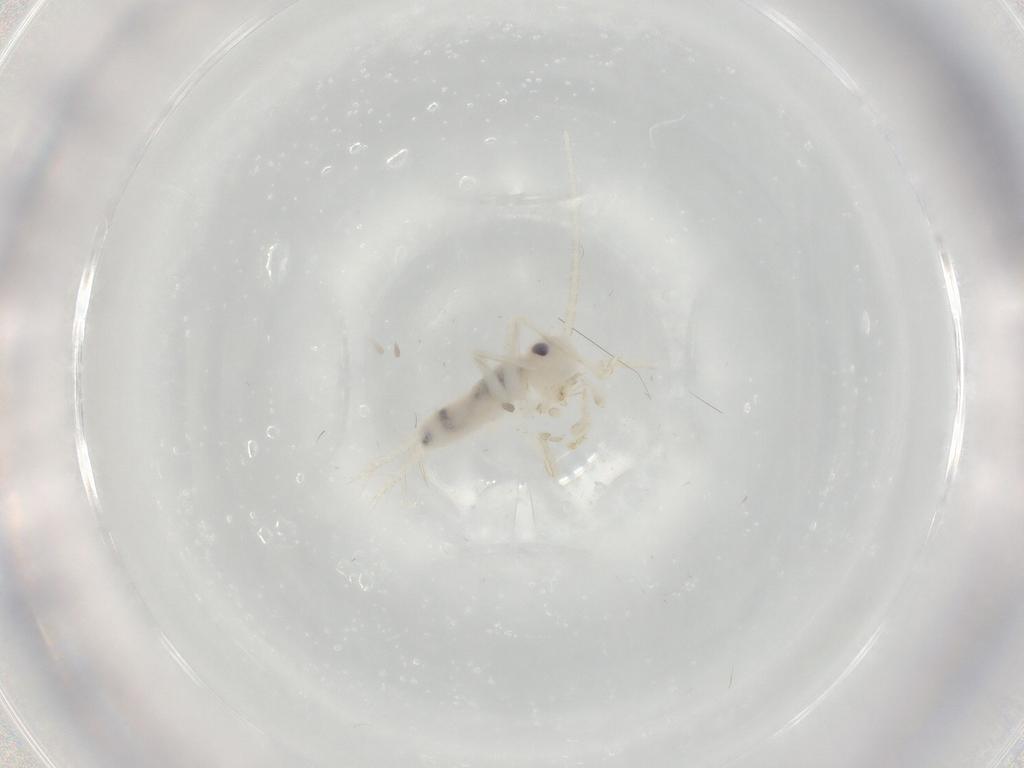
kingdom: Animalia
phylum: Arthropoda
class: Insecta
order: Orthoptera
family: Trigonidiidae
